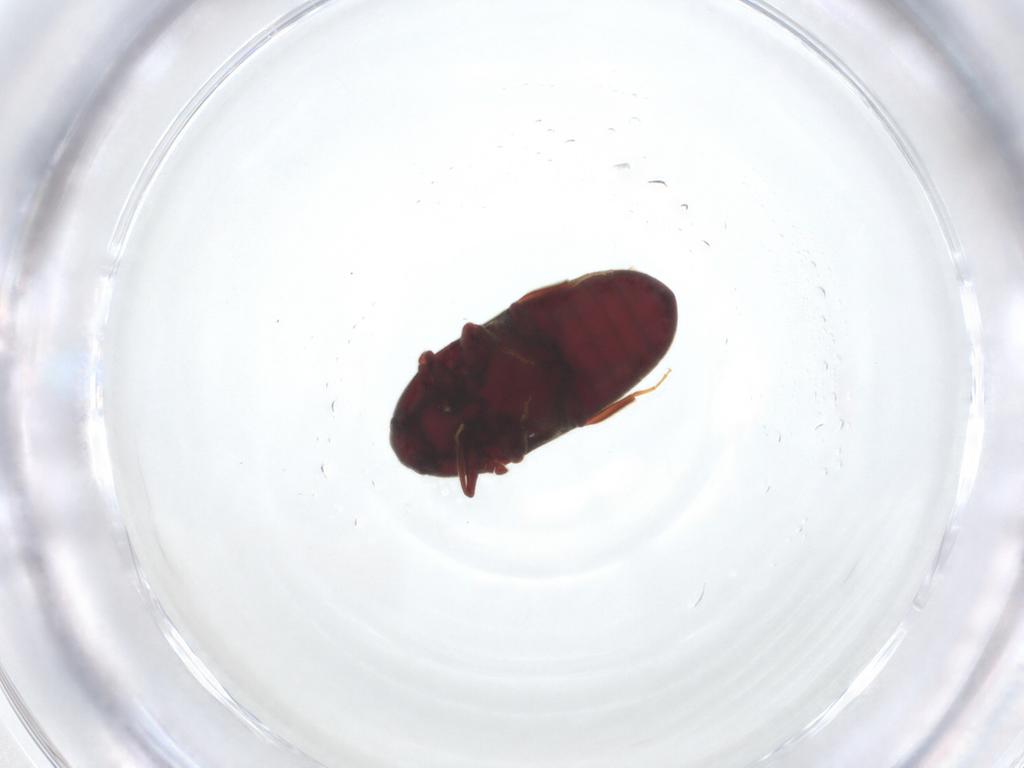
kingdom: Animalia
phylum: Arthropoda
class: Insecta
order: Coleoptera
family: Throscidae
